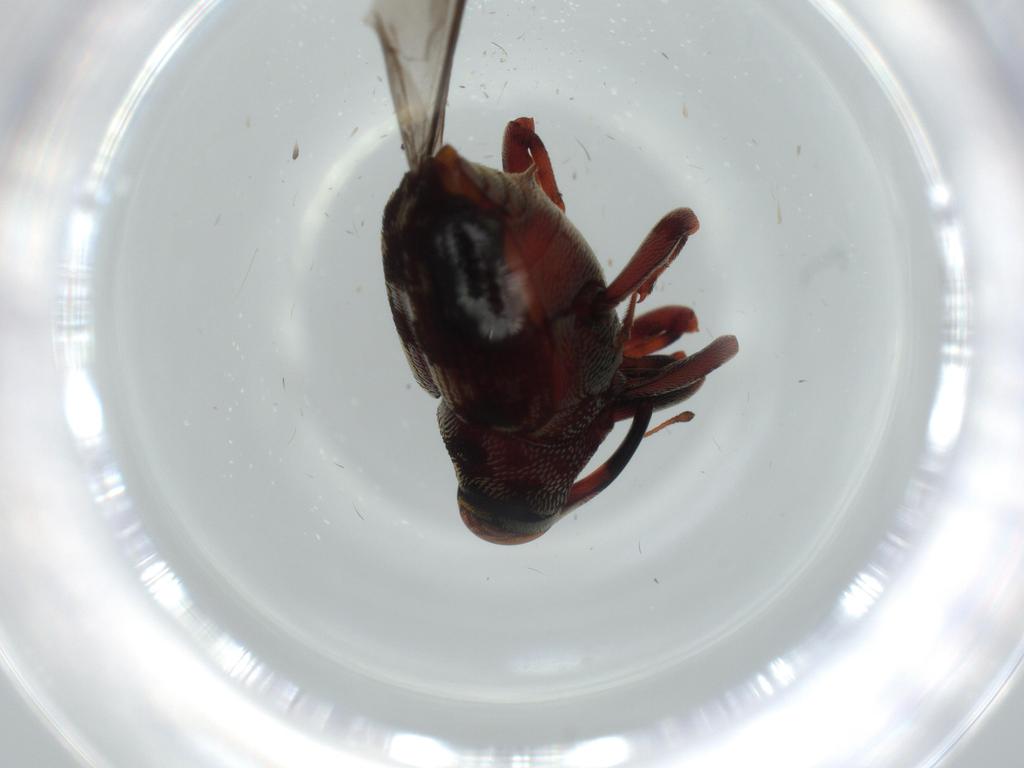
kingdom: Animalia
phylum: Arthropoda
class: Insecta
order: Coleoptera
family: Curculionidae
